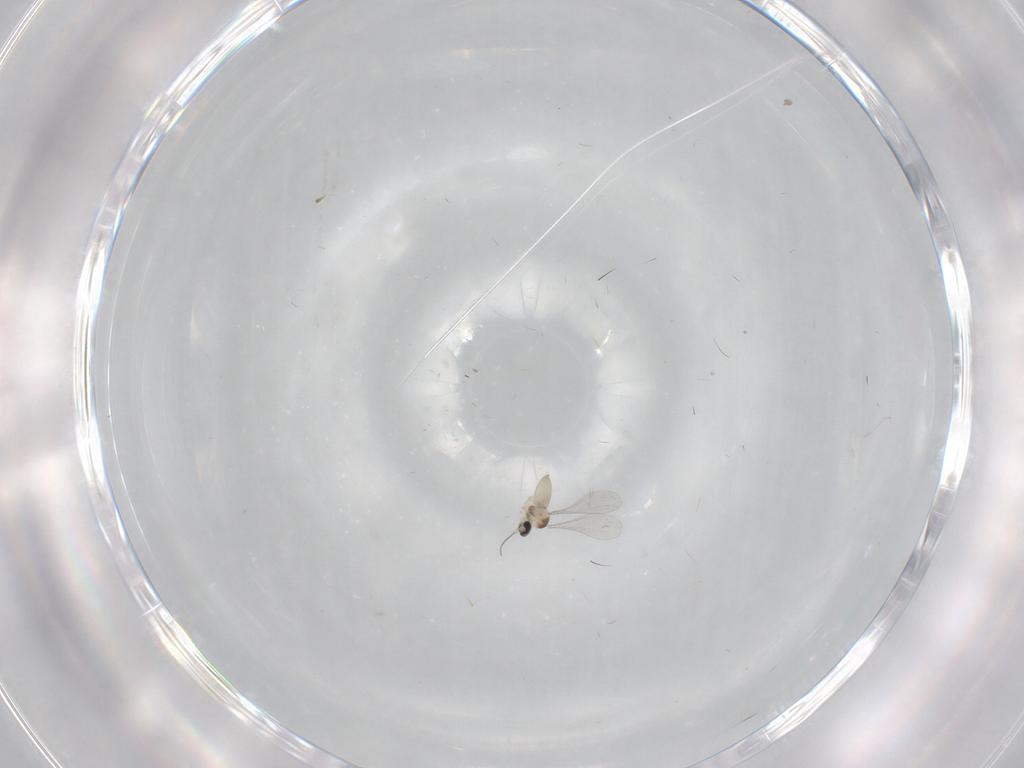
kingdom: Animalia
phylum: Arthropoda
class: Insecta
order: Diptera
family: Cecidomyiidae
